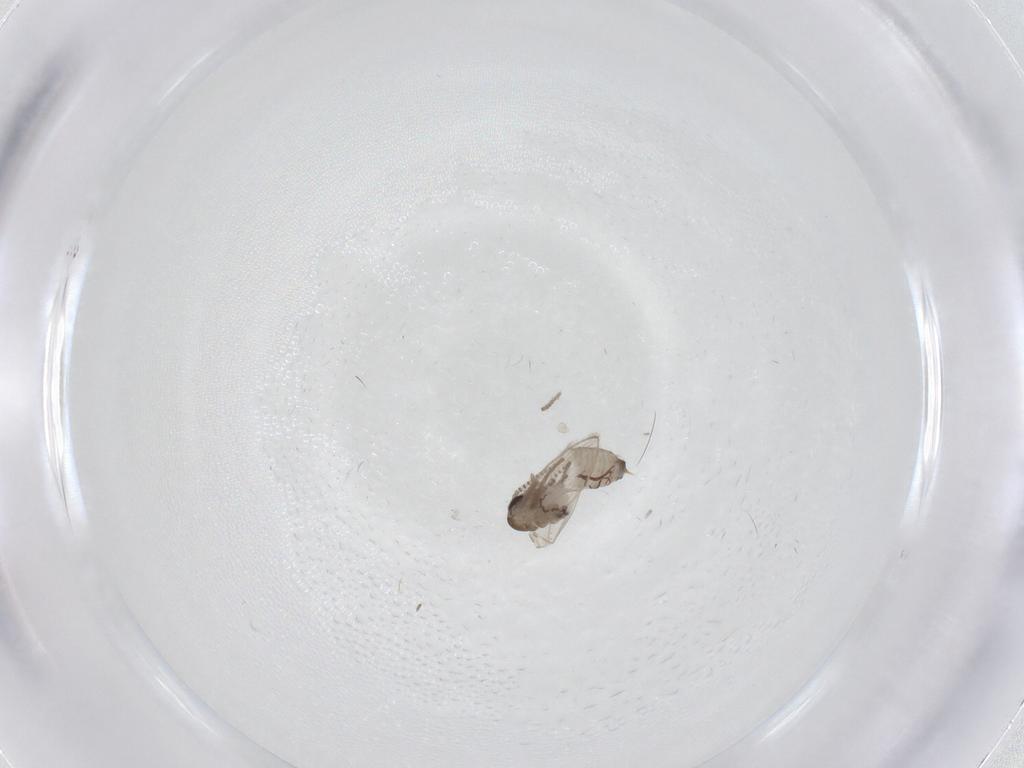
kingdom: Animalia
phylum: Arthropoda
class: Insecta
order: Diptera
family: Psychodidae
